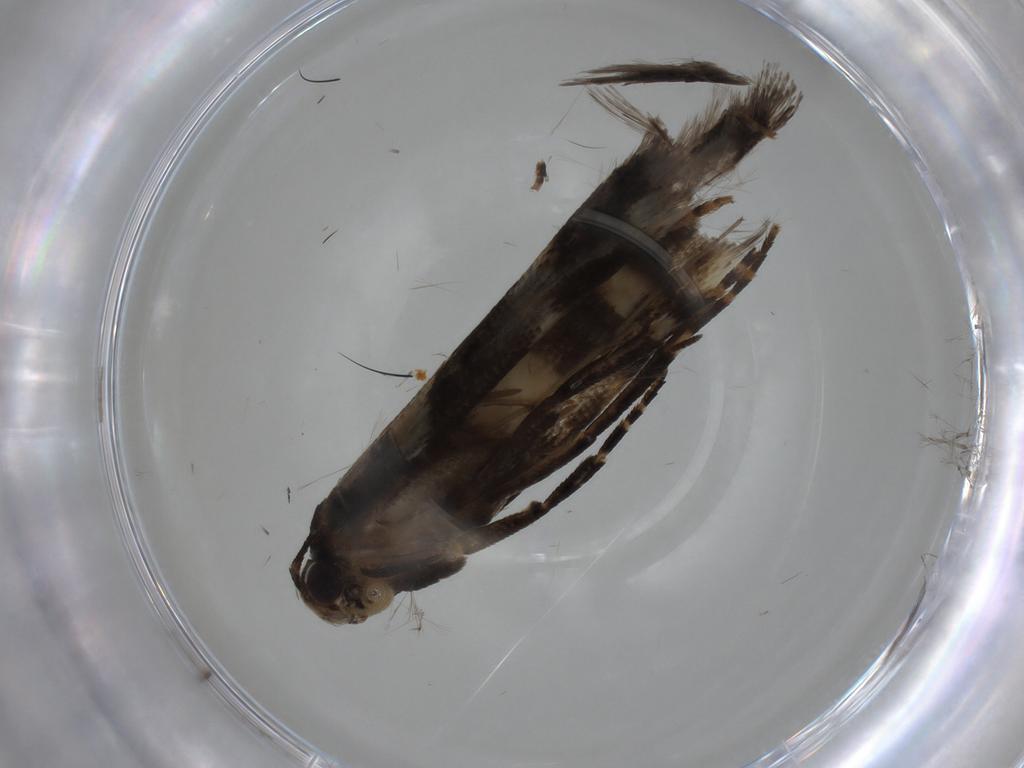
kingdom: Animalia
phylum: Arthropoda
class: Insecta
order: Lepidoptera
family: Gelechiidae
